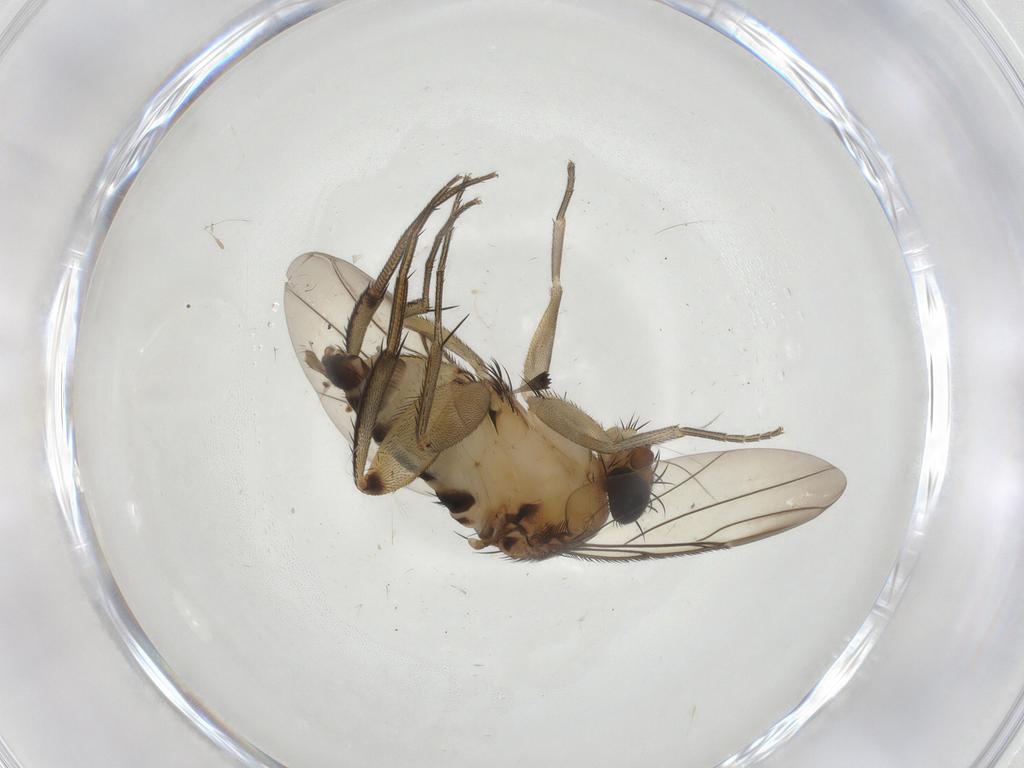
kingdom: Animalia
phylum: Arthropoda
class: Insecta
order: Diptera
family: Phoridae
